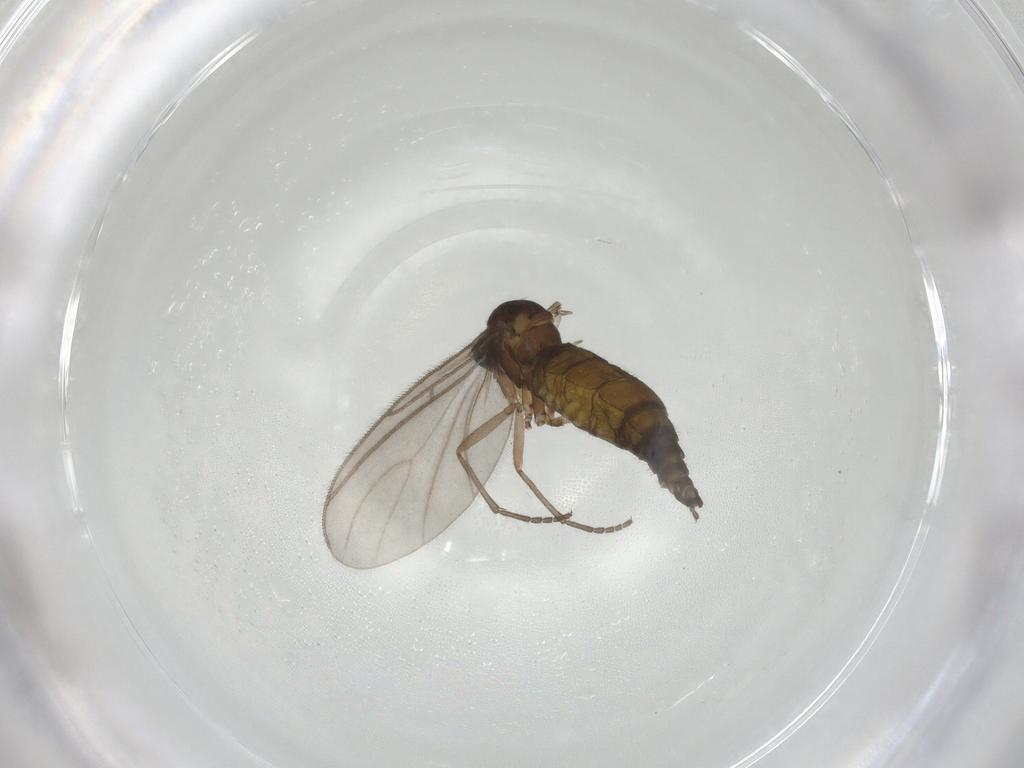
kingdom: Animalia
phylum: Arthropoda
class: Insecta
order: Diptera
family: Sciaridae
